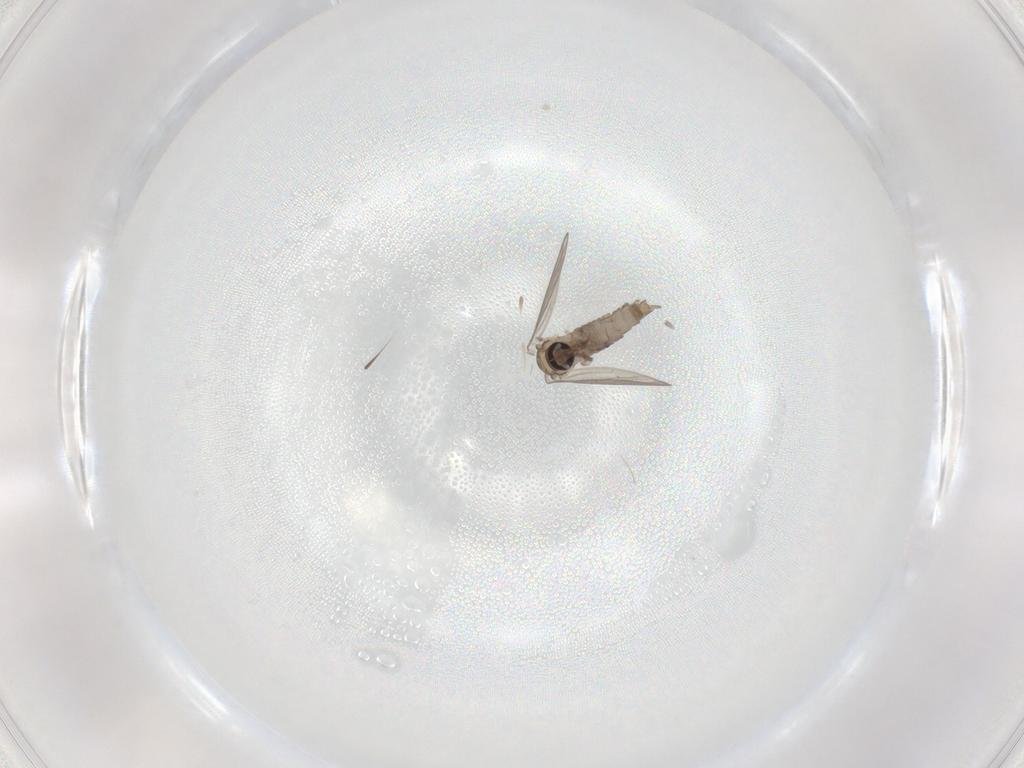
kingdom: Animalia
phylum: Arthropoda
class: Insecta
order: Diptera
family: Psychodidae
